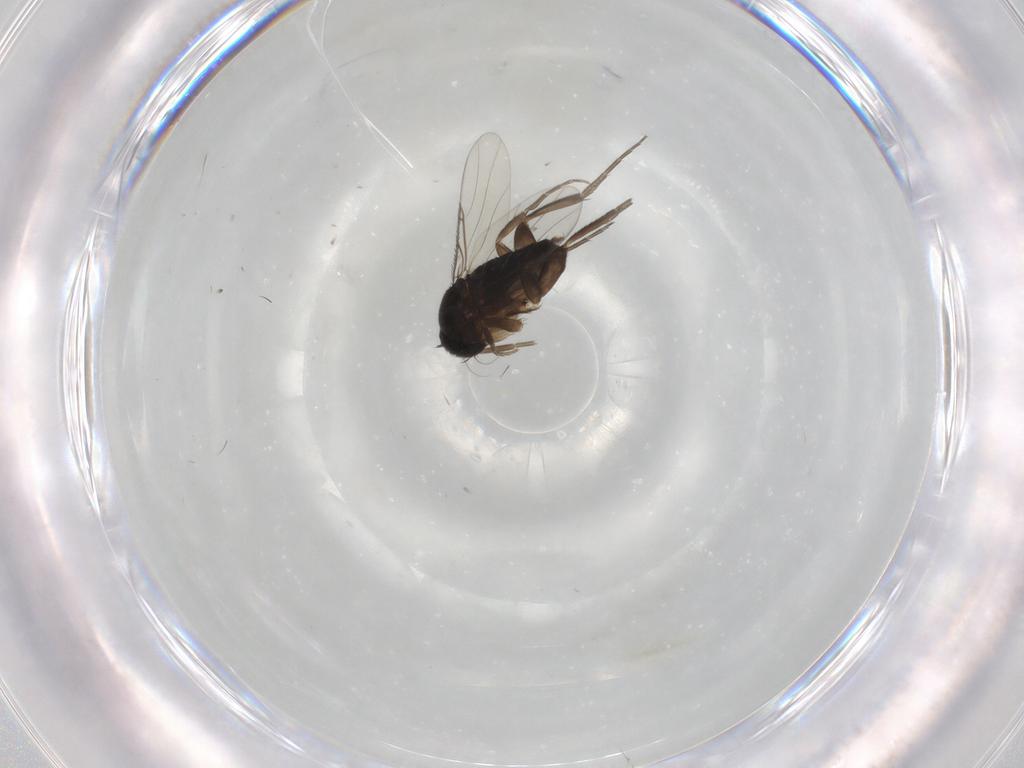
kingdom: Animalia
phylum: Arthropoda
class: Insecta
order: Diptera
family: Phoridae
